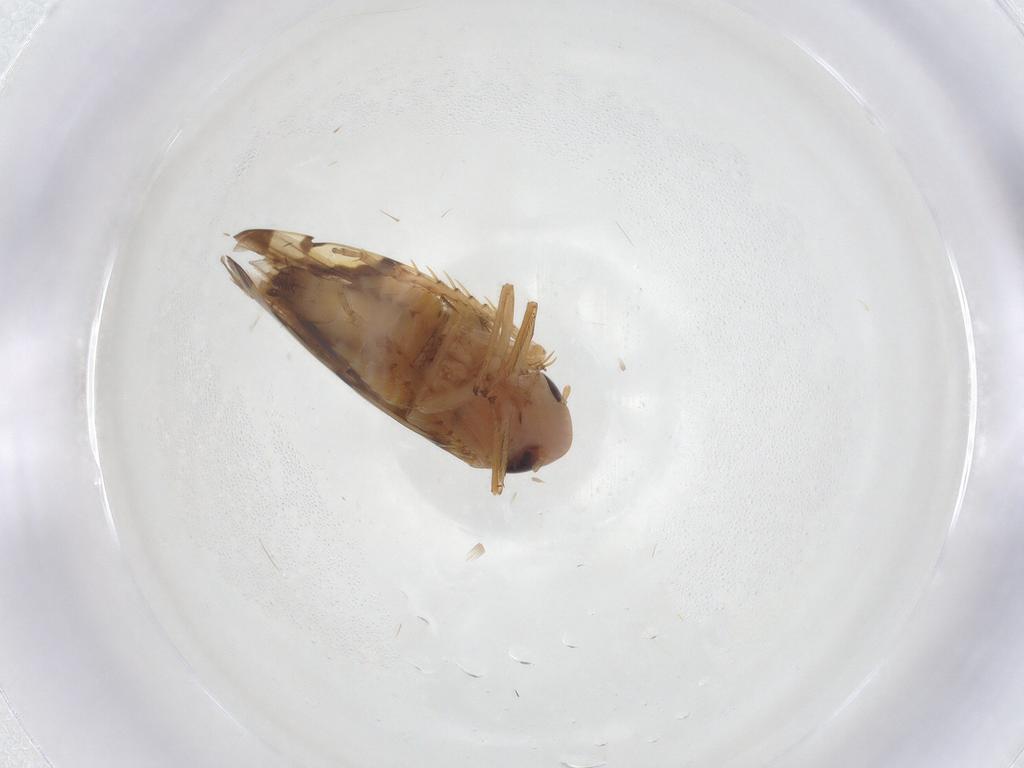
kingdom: Animalia
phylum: Arthropoda
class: Insecta
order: Hemiptera
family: Cicadellidae
